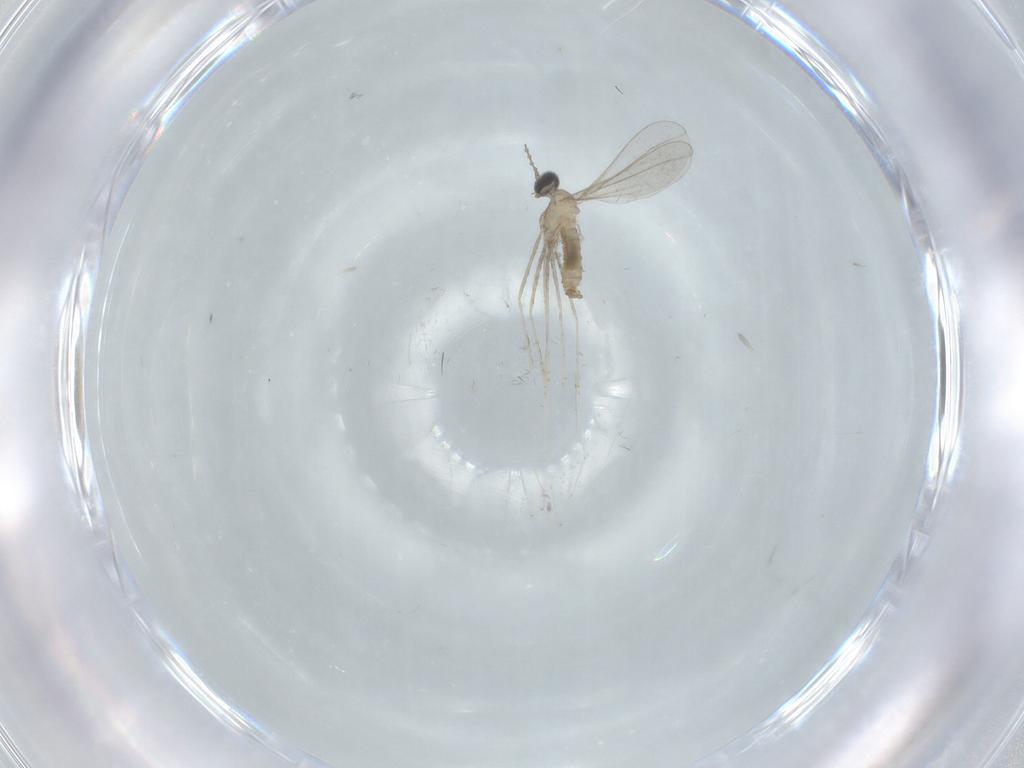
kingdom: Animalia
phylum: Arthropoda
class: Insecta
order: Diptera
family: Limoniidae
